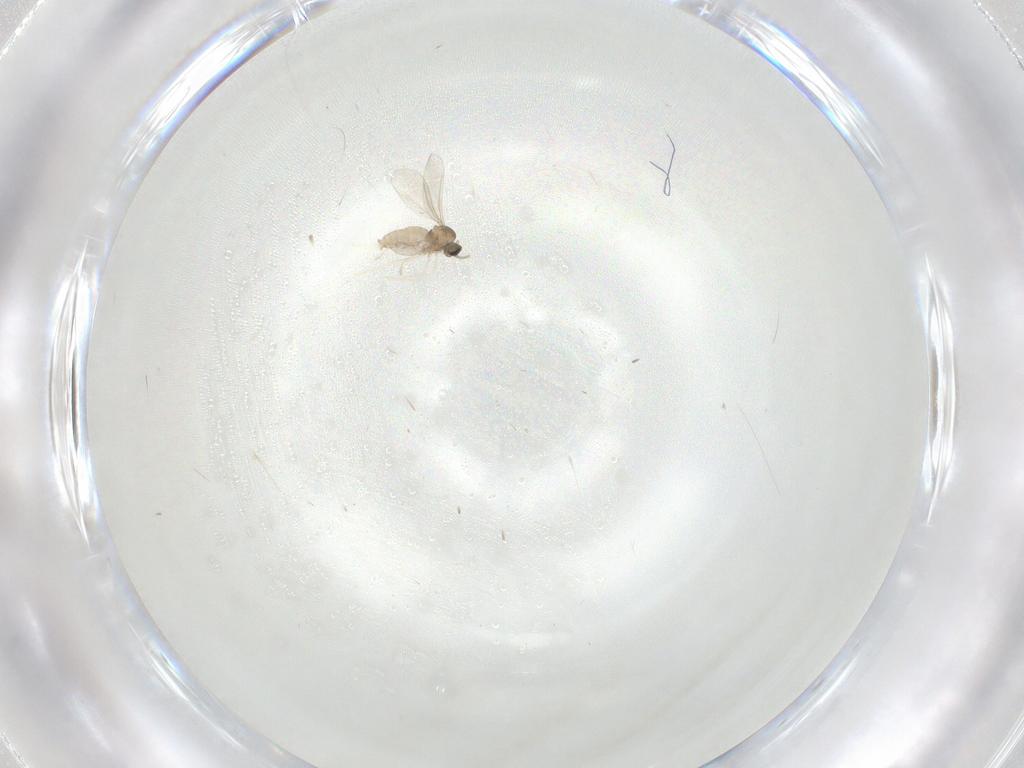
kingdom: Animalia
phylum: Arthropoda
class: Insecta
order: Diptera
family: Cecidomyiidae
